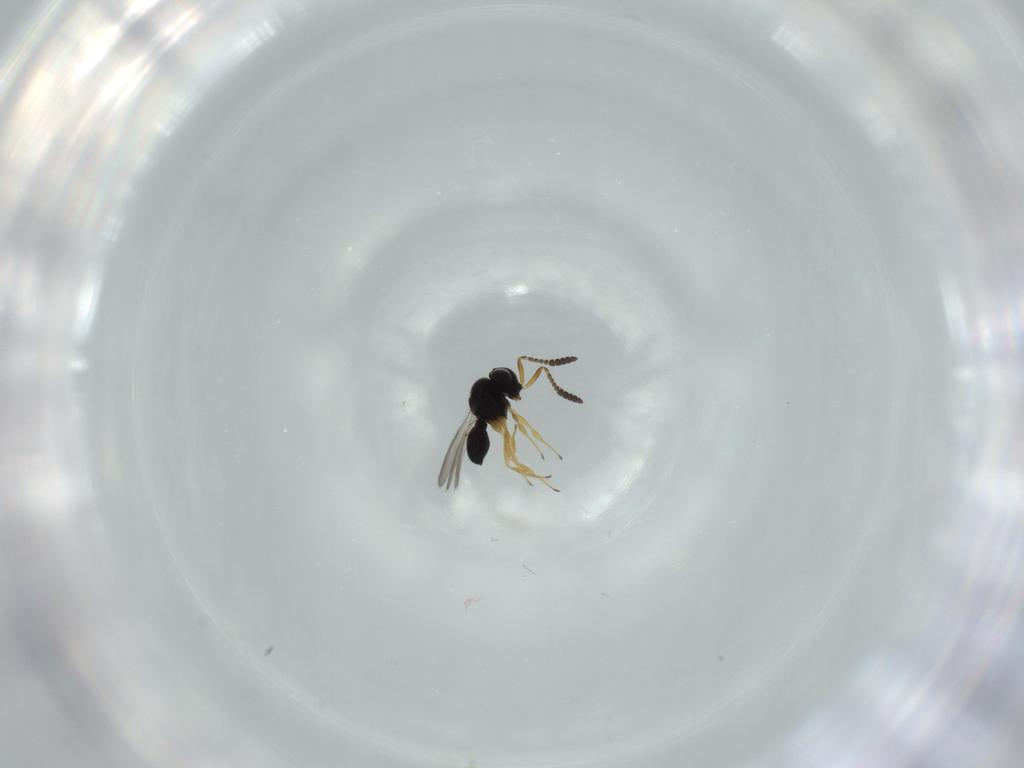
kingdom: Animalia
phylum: Arthropoda
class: Insecta
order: Hymenoptera
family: Scelionidae
